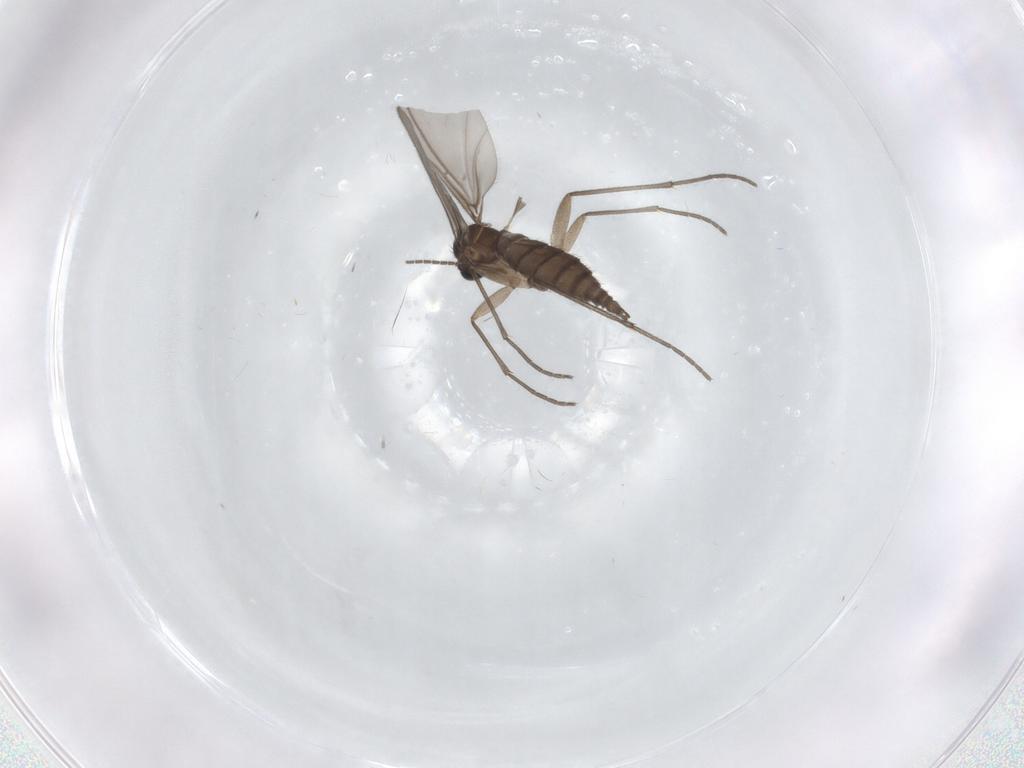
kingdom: Animalia
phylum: Arthropoda
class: Insecta
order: Diptera
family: Sciaridae
